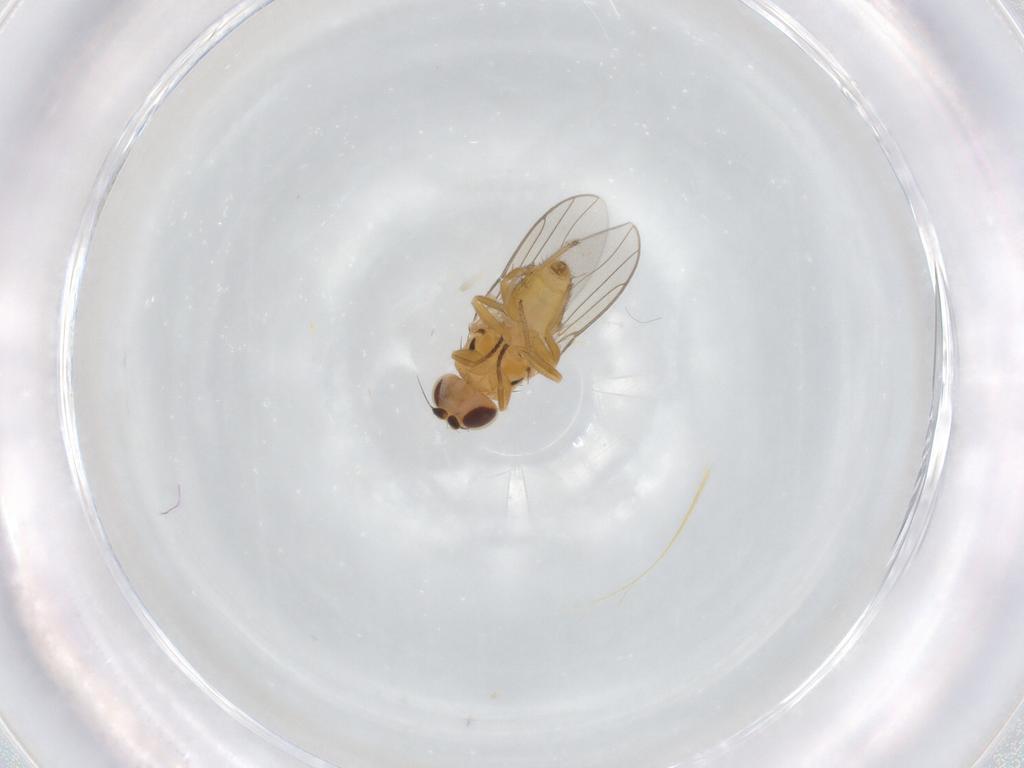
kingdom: Animalia
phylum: Arthropoda
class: Insecta
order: Diptera
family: Chloropidae
